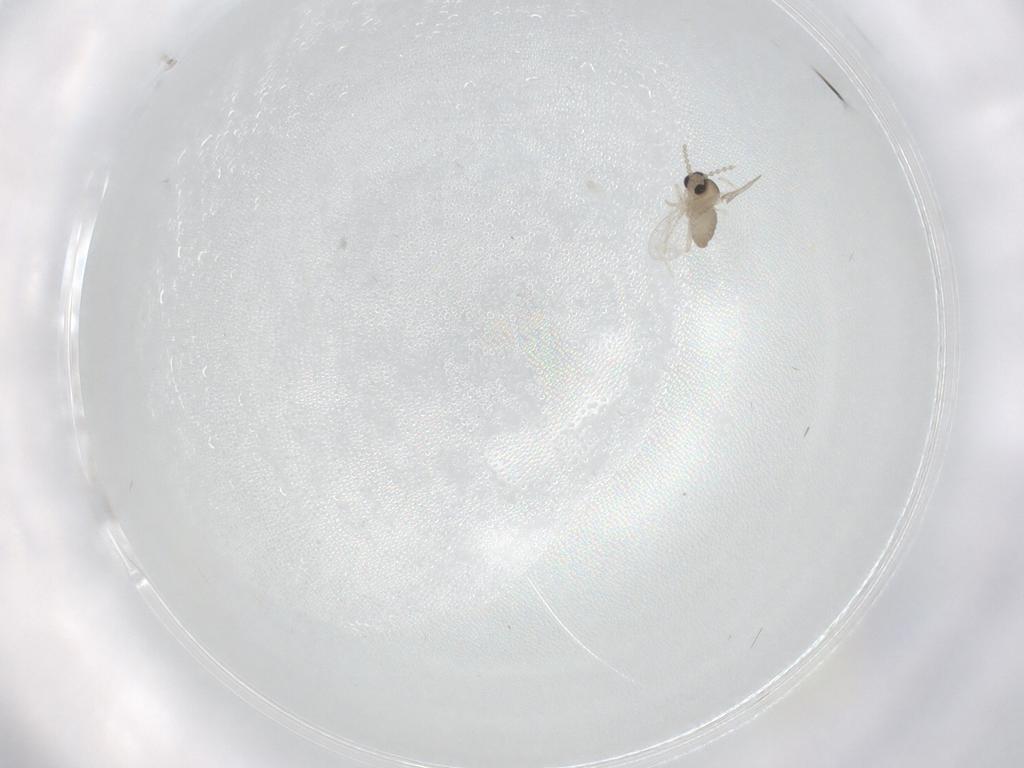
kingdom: Animalia
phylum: Arthropoda
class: Insecta
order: Diptera
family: Cecidomyiidae
